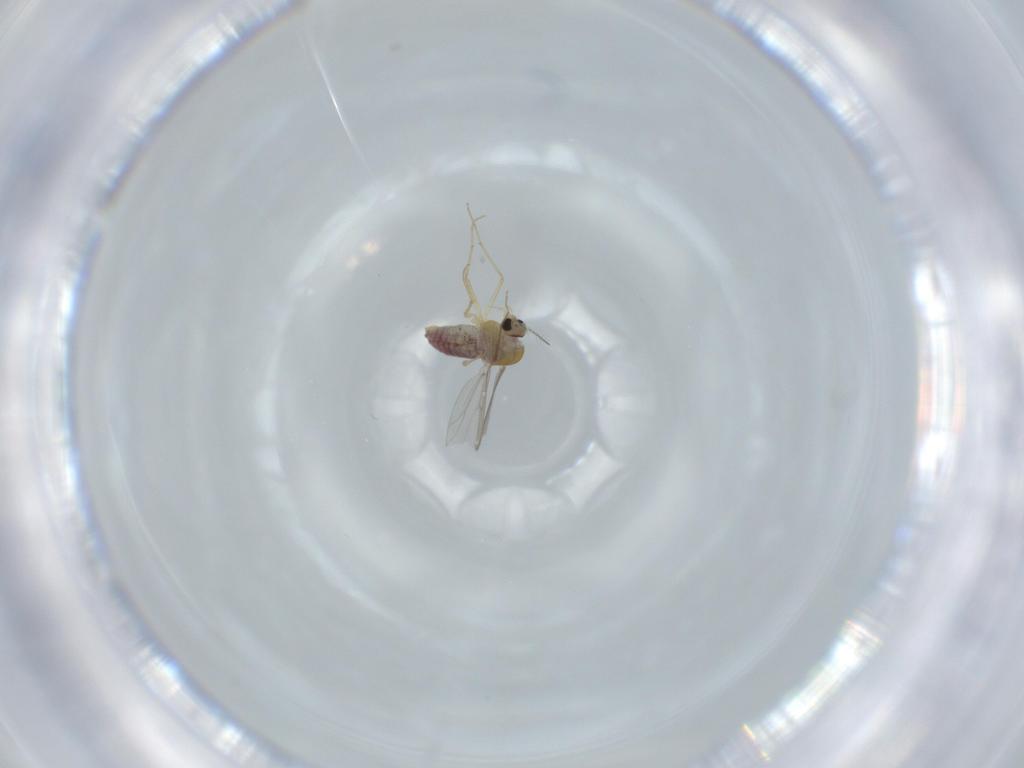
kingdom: Animalia
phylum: Arthropoda
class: Insecta
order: Diptera
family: Chironomidae
